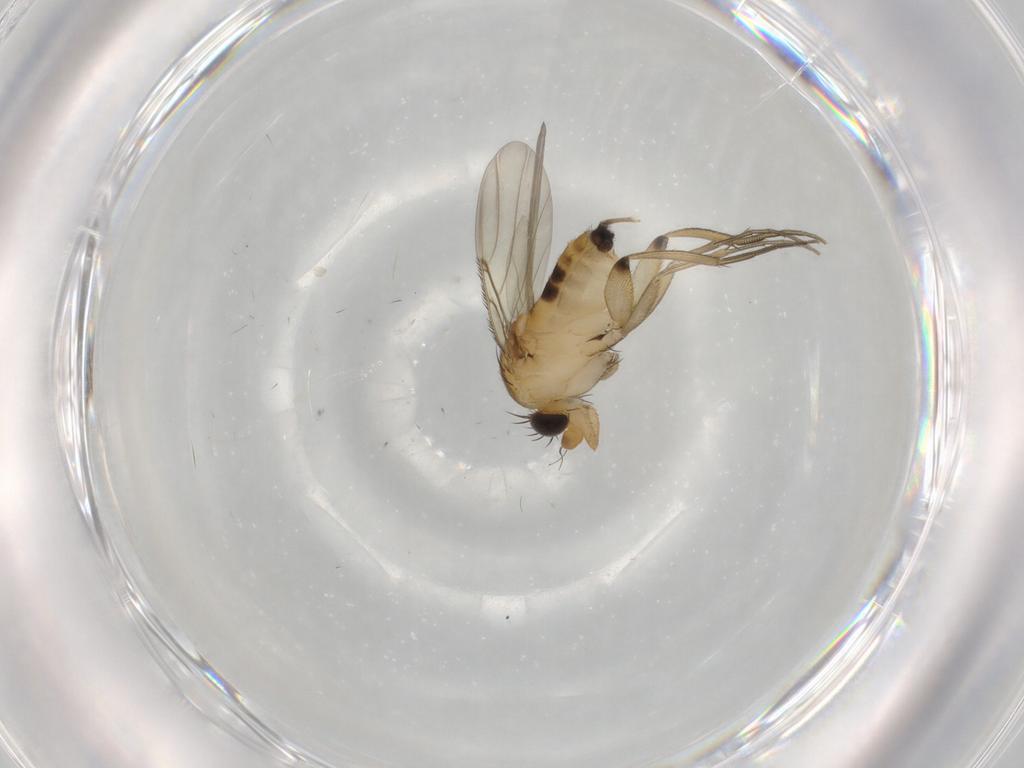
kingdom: Animalia
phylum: Arthropoda
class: Insecta
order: Diptera
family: Phoridae
